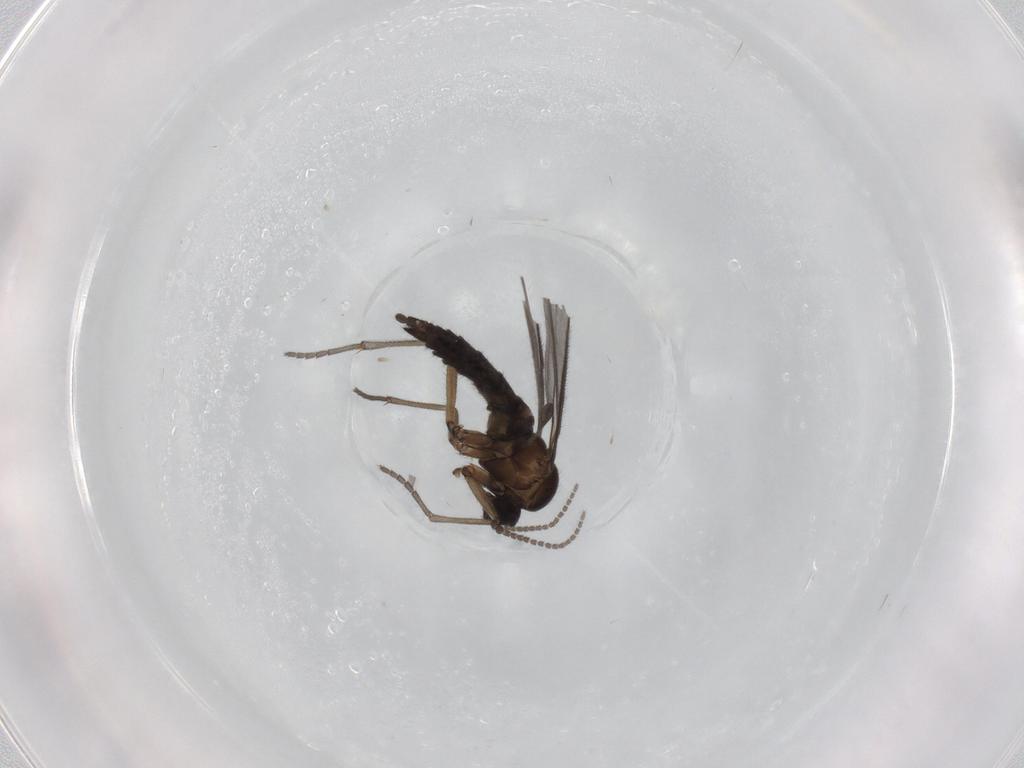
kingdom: Animalia
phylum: Arthropoda
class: Insecta
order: Diptera
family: Sciaridae
